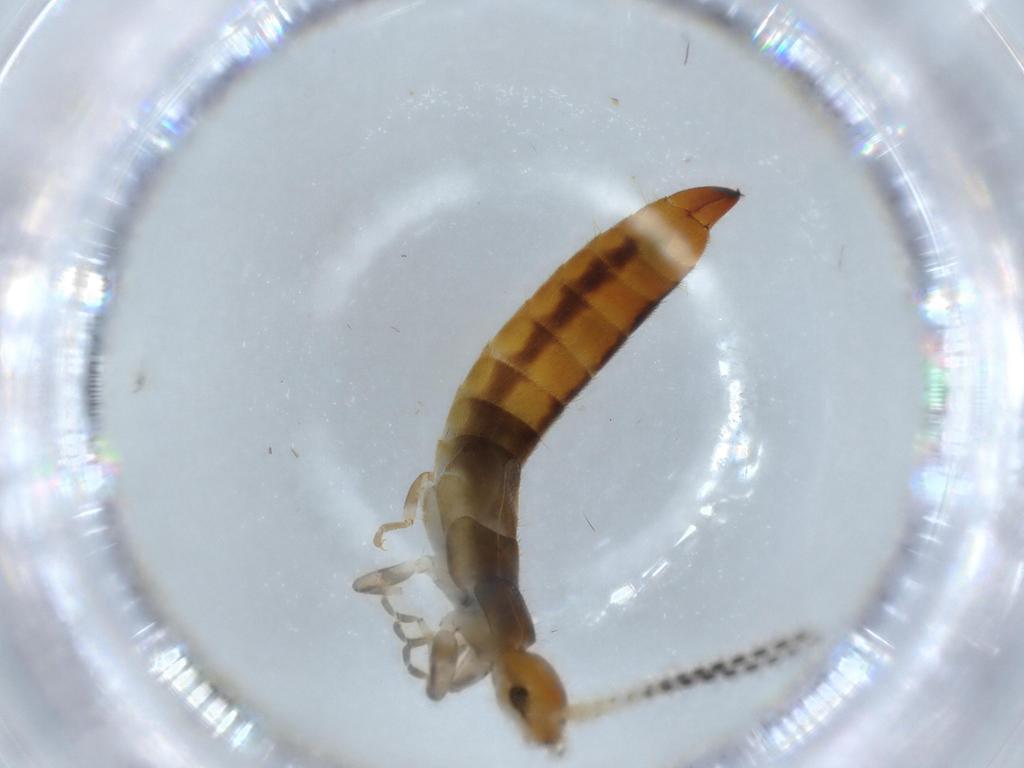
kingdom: Animalia
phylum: Arthropoda
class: Insecta
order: Dermaptera
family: Forficulidae
